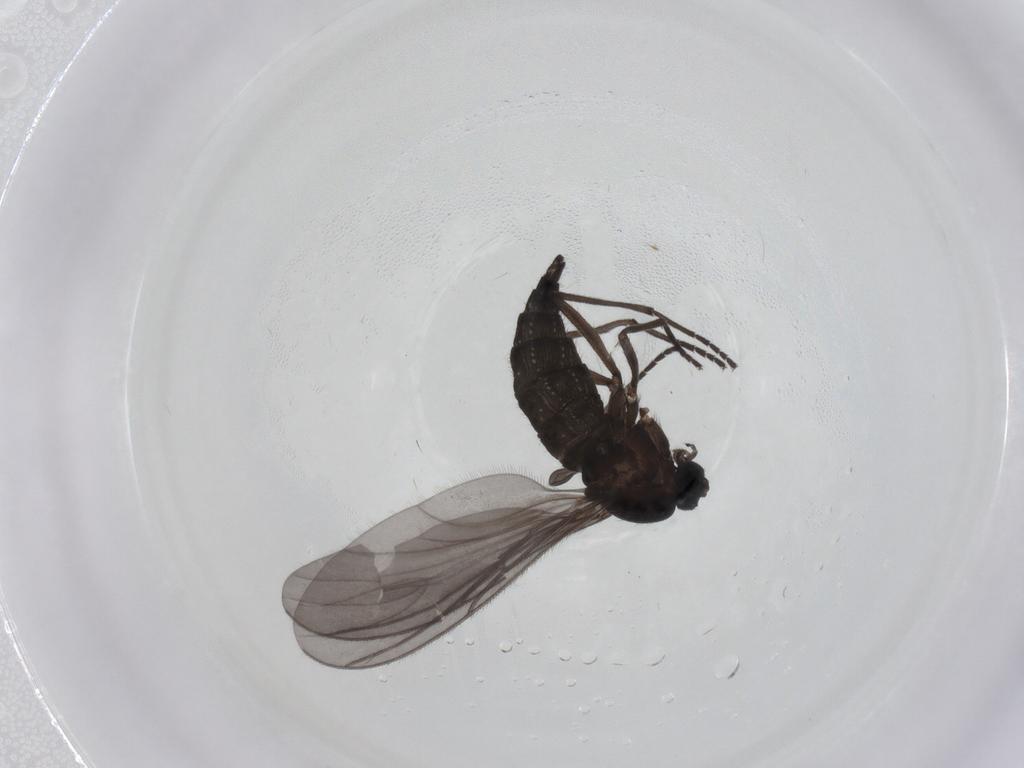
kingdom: Animalia
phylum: Arthropoda
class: Insecta
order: Diptera
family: Sciaridae
